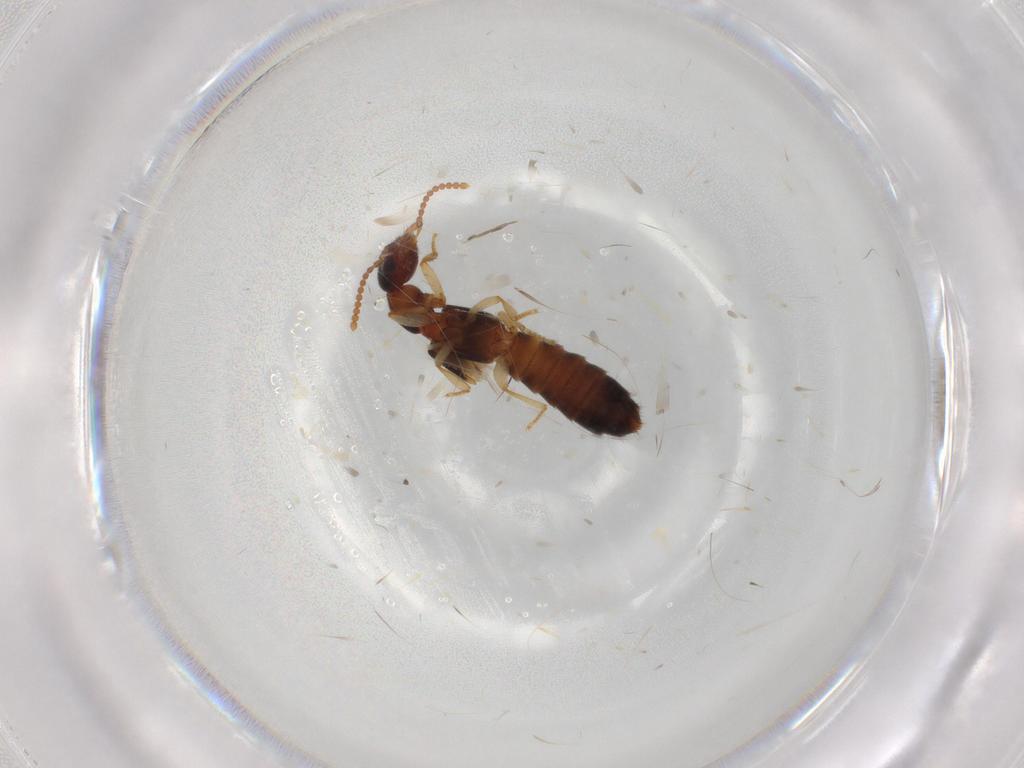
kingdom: Animalia
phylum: Arthropoda
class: Insecta
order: Coleoptera
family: Staphylinidae
